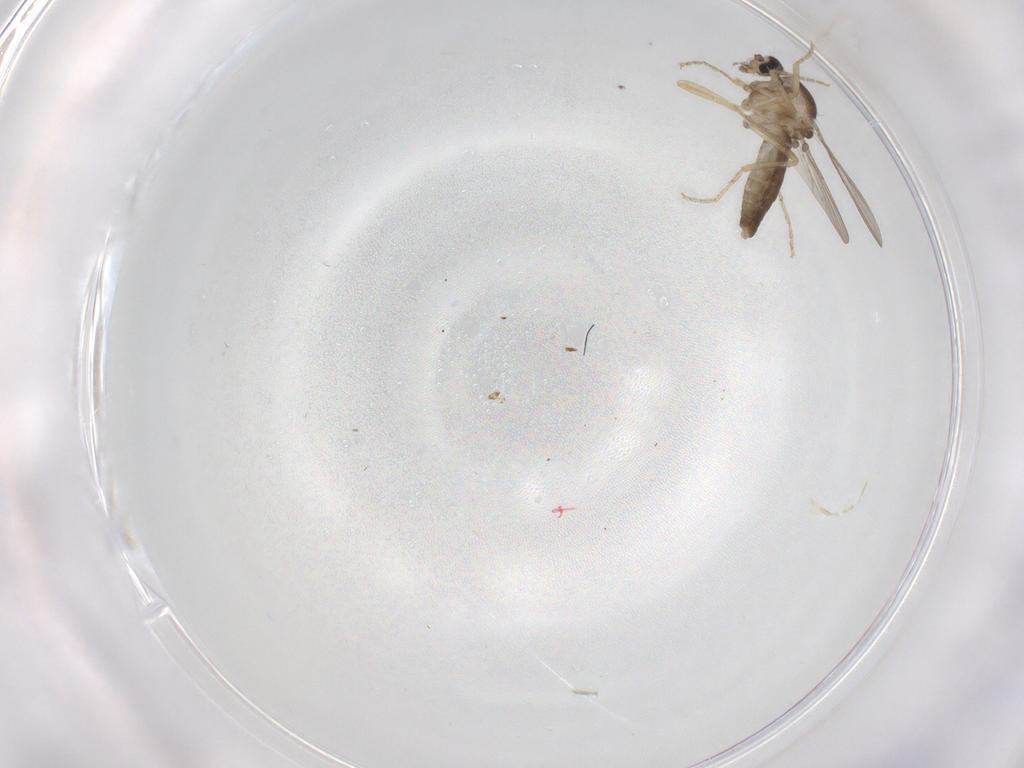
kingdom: Animalia
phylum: Arthropoda
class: Insecta
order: Diptera
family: Ceratopogonidae
